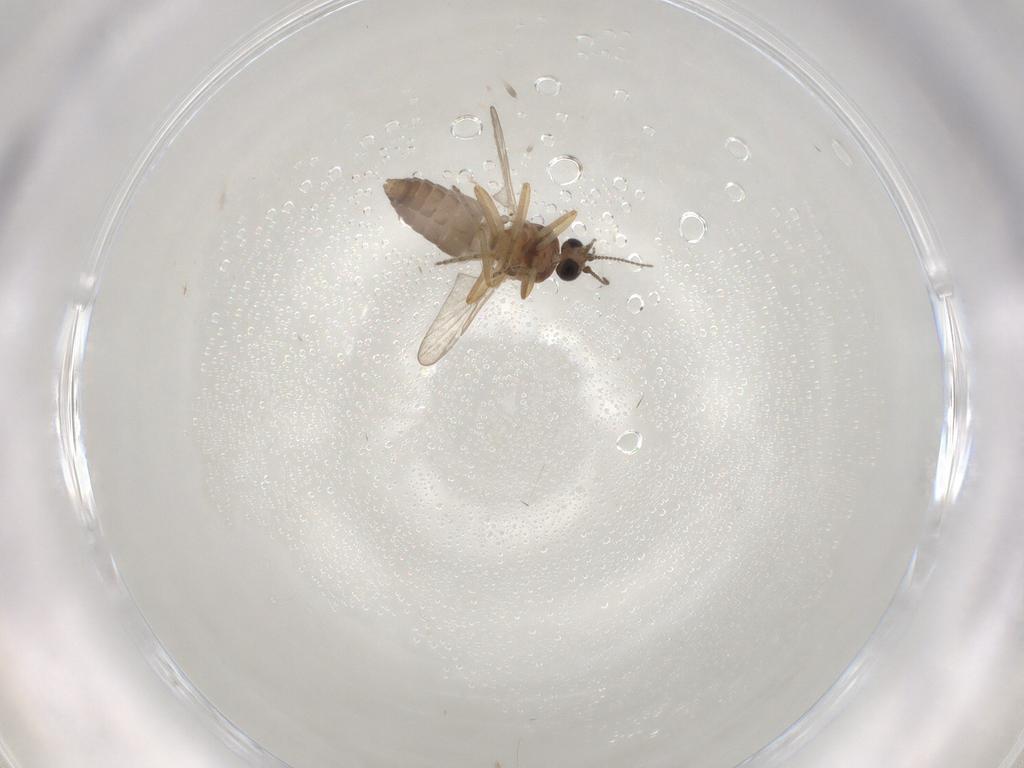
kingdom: Animalia
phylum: Arthropoda
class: Insecta
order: Diptera
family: Ceratopogonidae
